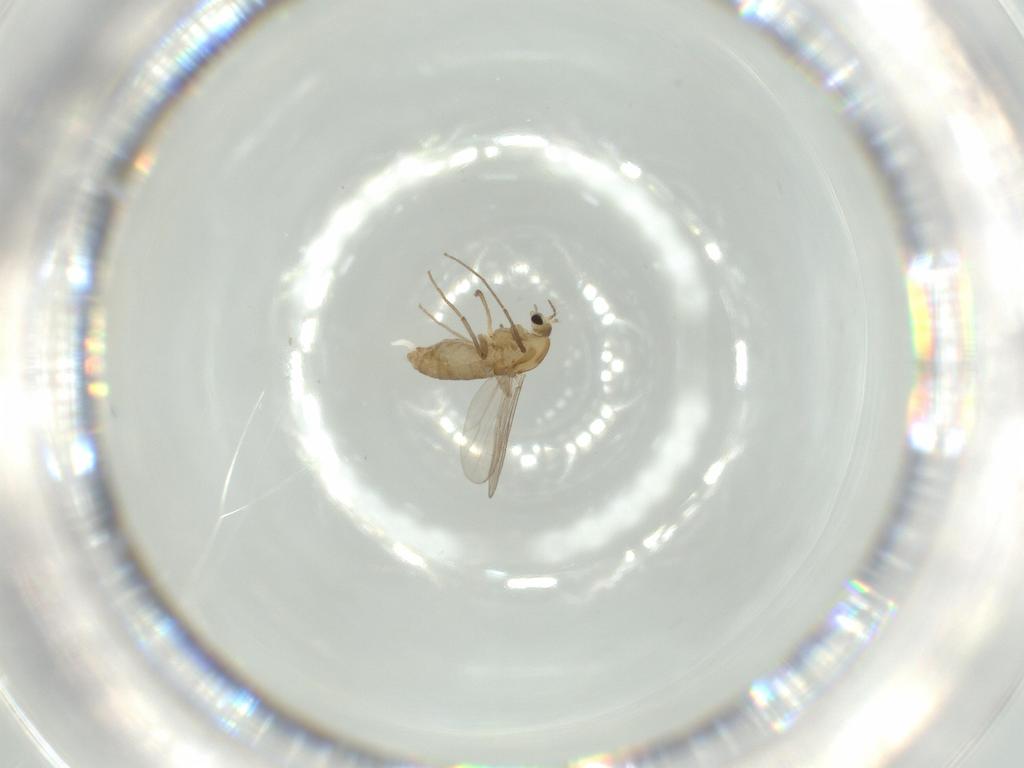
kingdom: Animalia
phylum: Arthropoda
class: Insecta
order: Diptera
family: Chironomidae
